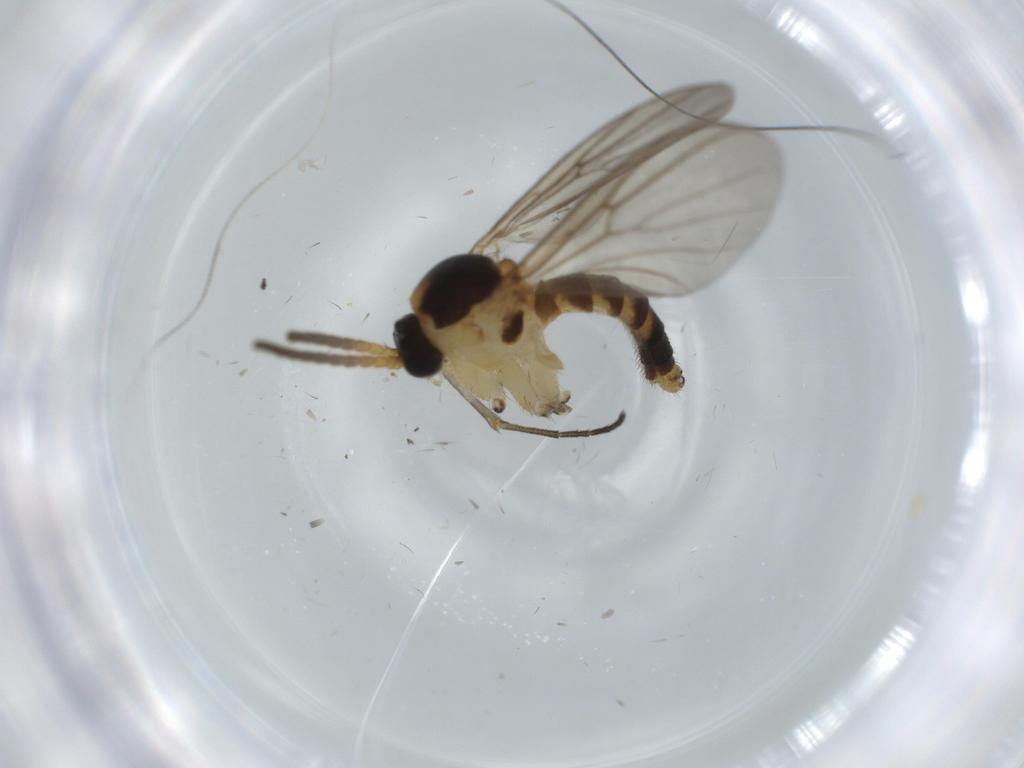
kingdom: Animalia
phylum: Arthropoda
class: Insecta
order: Diptera
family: Chironomidae
